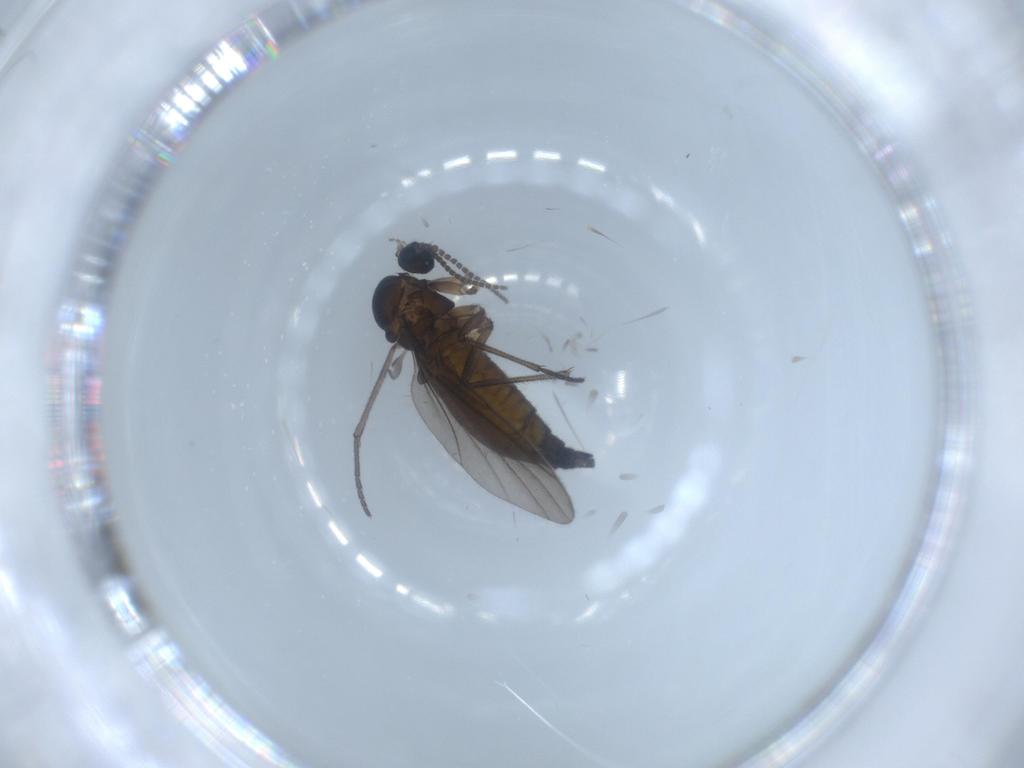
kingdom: Animalia
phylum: Arthropoda
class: Insecta
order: Diptera
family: Sciaridae
